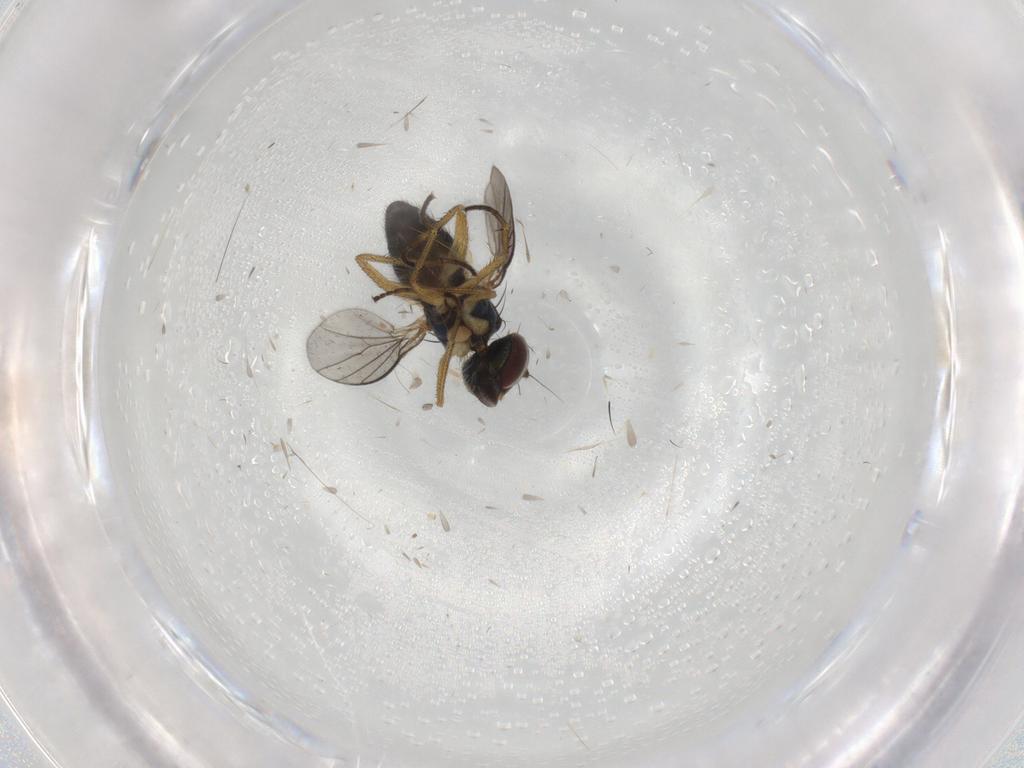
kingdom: Animalia
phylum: Arthropoda
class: Insecta
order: Diptera
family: Chironomidae
